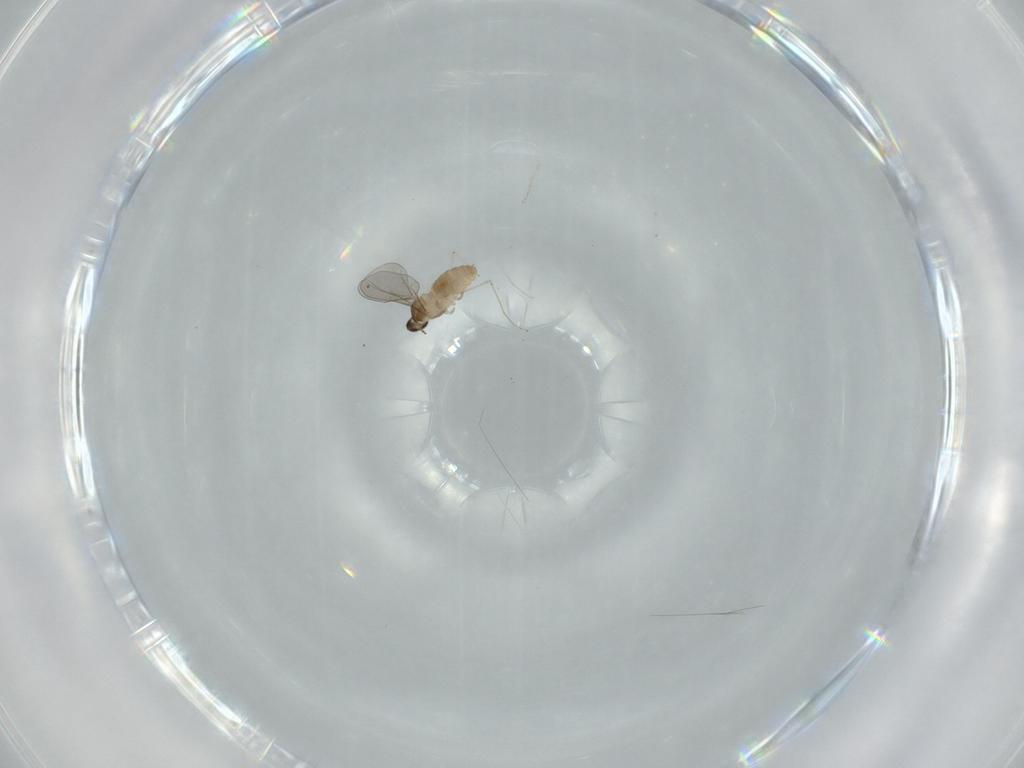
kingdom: Animalia
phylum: Arthropoda
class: Insecta
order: Diptera
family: Cecidomyiidae
